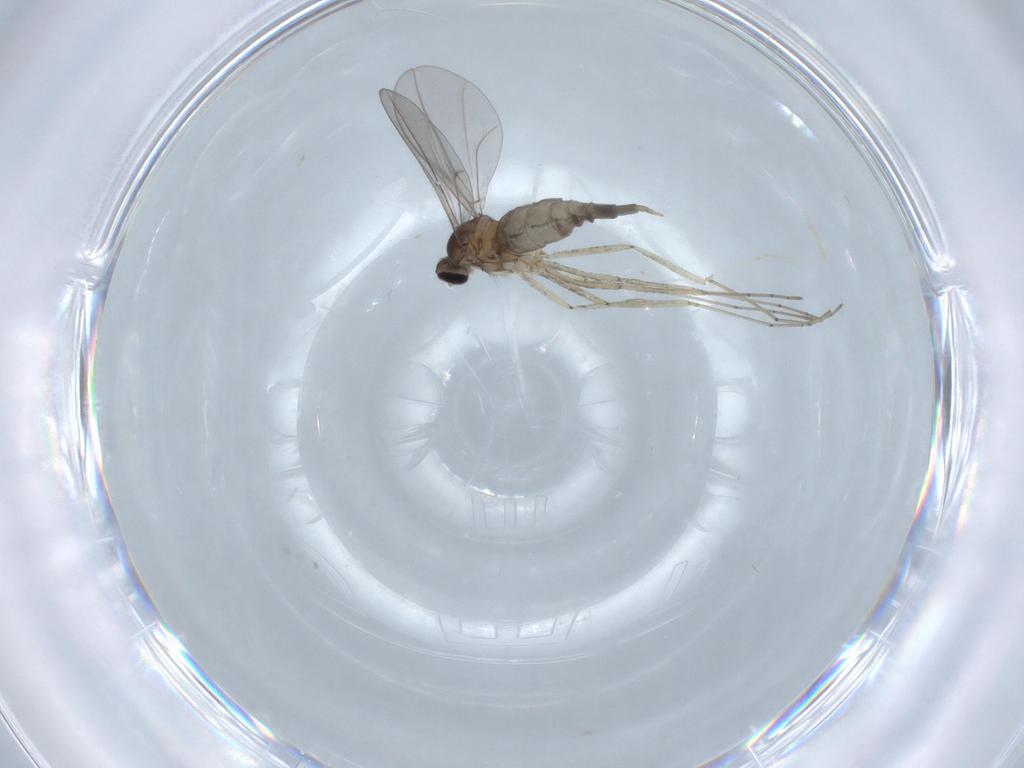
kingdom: Animalia
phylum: Arthropoda
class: Insecta
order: Diptera
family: Cecidomyiidae
